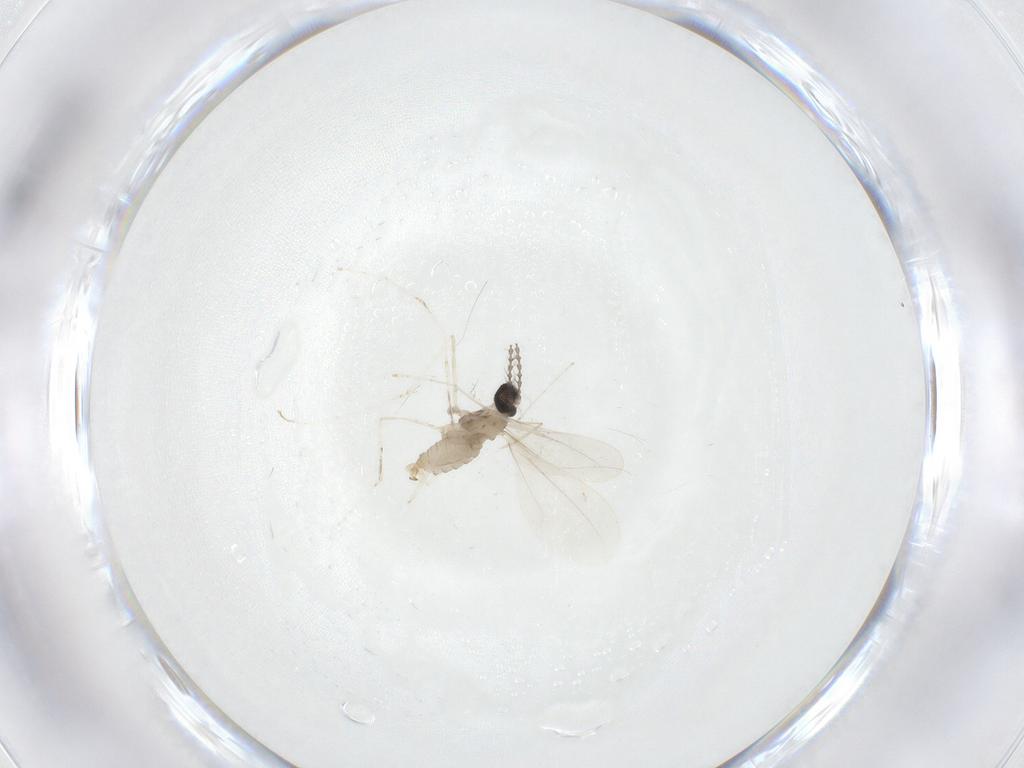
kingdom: Animalia
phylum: Arthropoda
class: Insecta
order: Diptera
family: Cecidomyiidae
